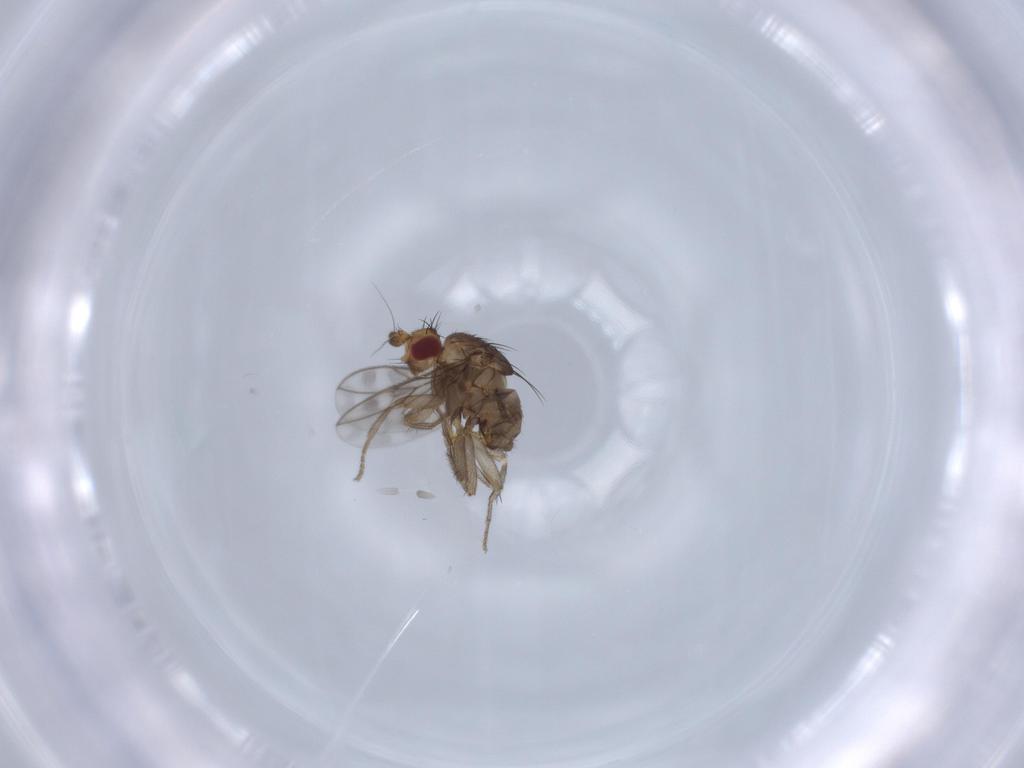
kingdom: Animalia
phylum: Arthropoda
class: Insecta
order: Diptera
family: Sphaeroceridae
